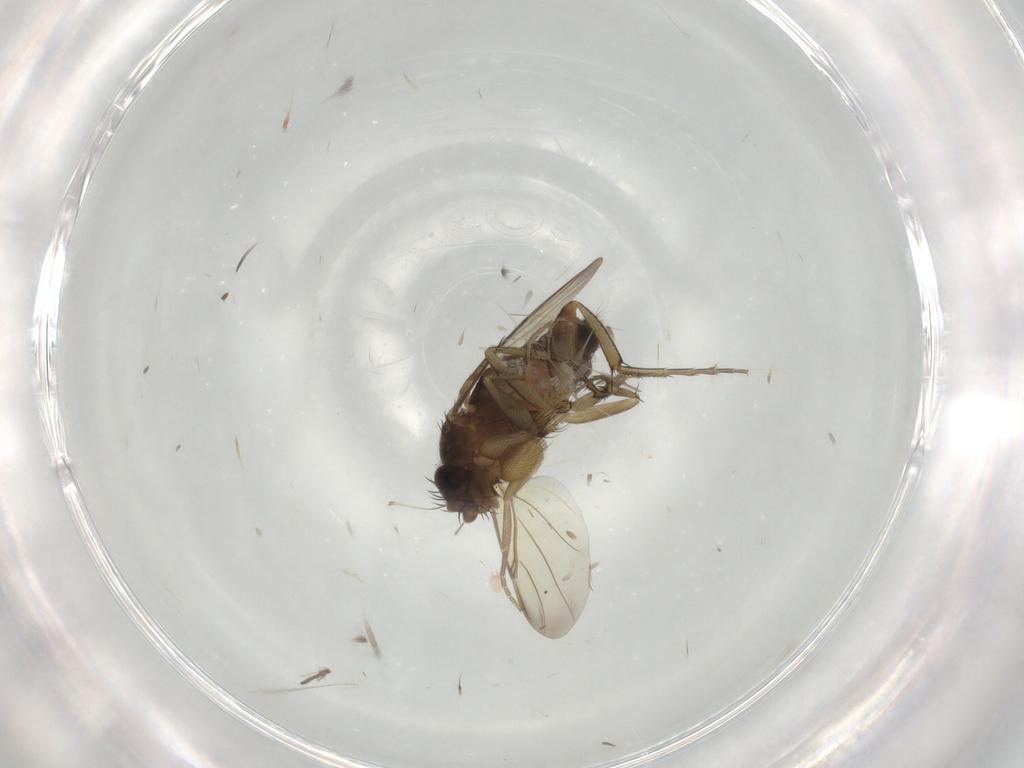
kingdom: Animalia
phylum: Arthropoda
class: Insecta
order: Diptera
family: Phoridae
